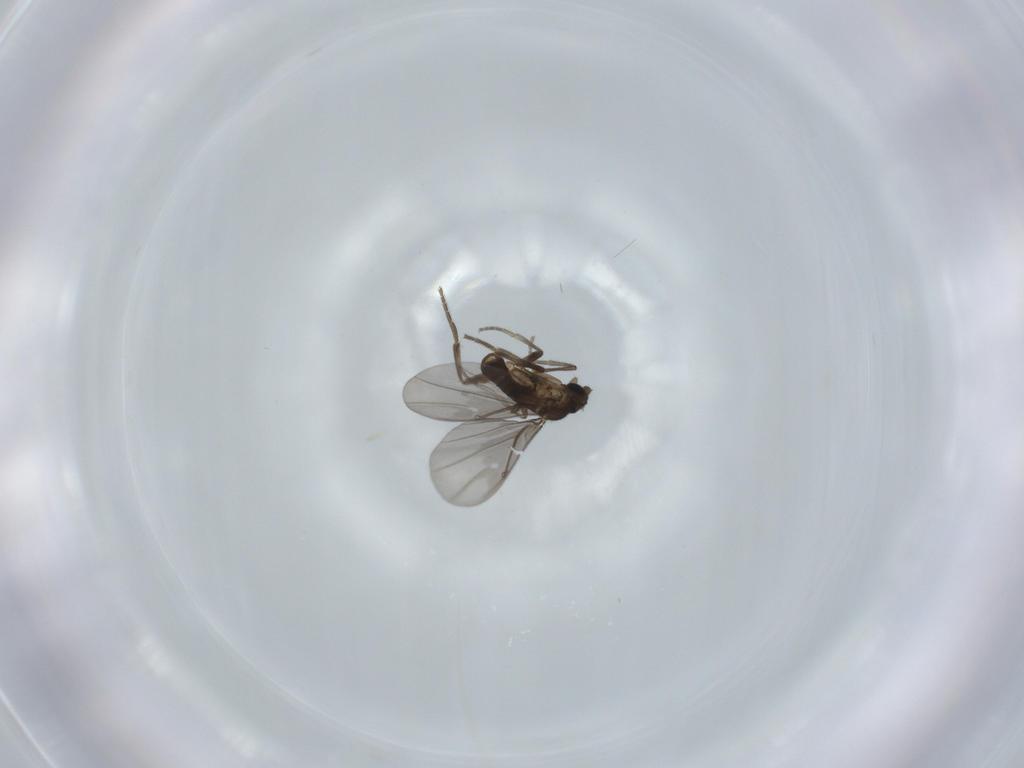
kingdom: Animalia
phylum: Arthropoda
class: Insecta
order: Diptera
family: Phoridae
